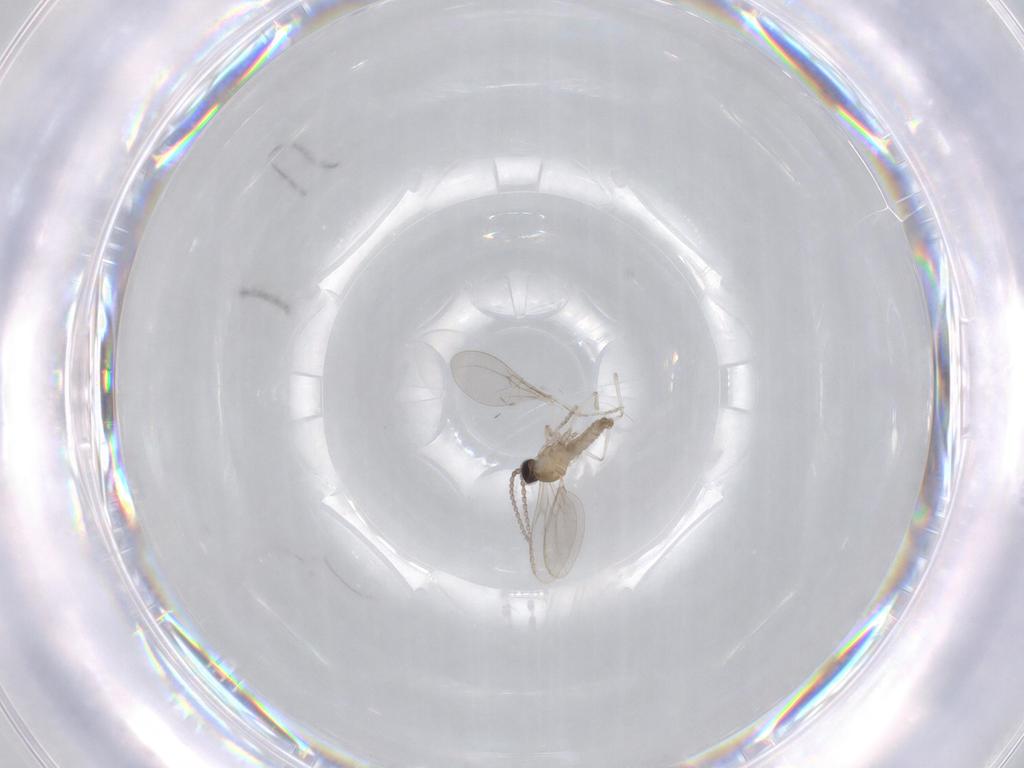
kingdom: Animalia
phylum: Arthropoda
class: Insecta
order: Diptera
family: Cecidomyiidae
